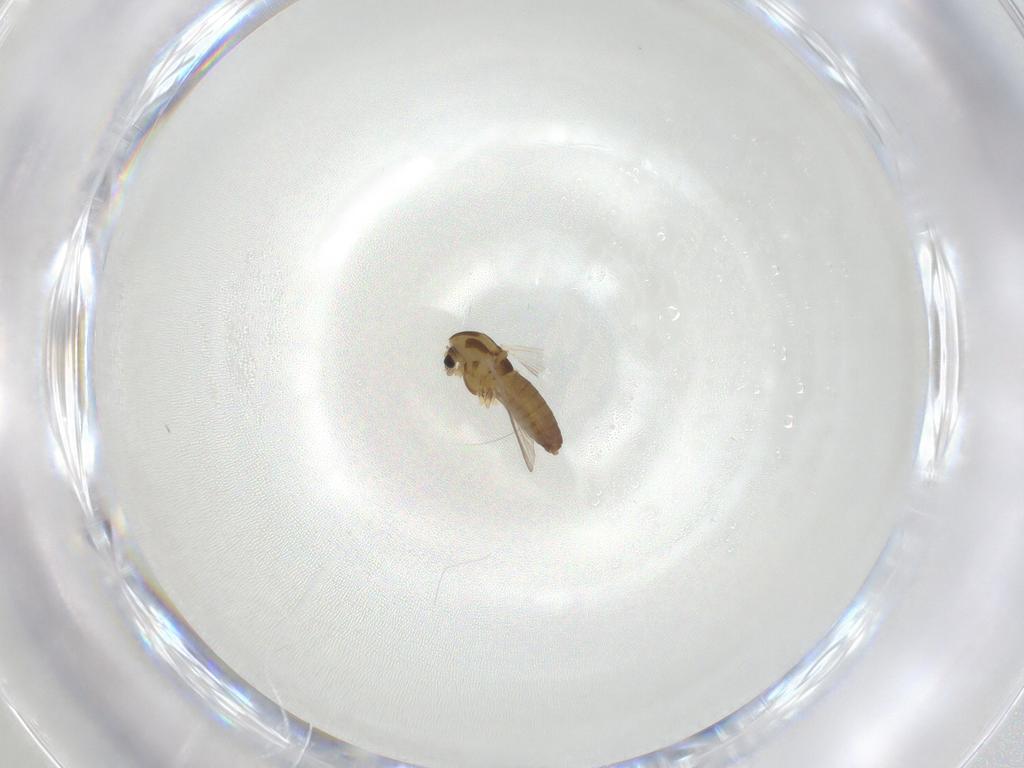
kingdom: Animalia
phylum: Arthropoda
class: Insecta
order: Diptera
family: Chironomidae
